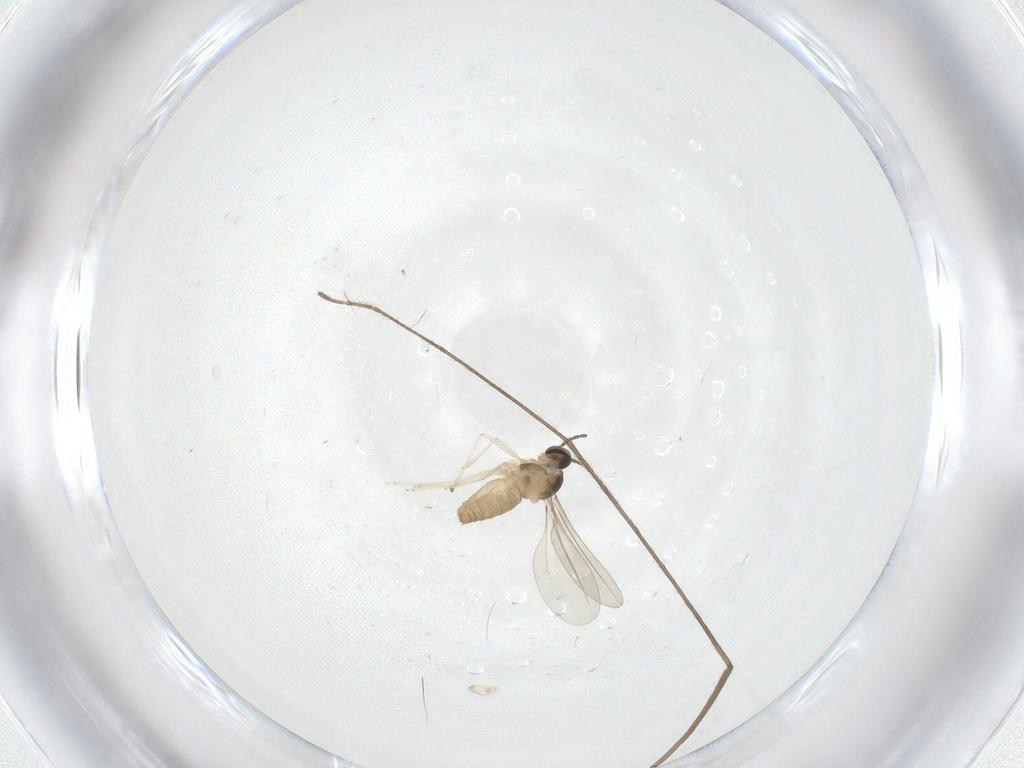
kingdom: Animalia
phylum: Arthropoda
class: Insecta
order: Diptera
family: Limoniidae
